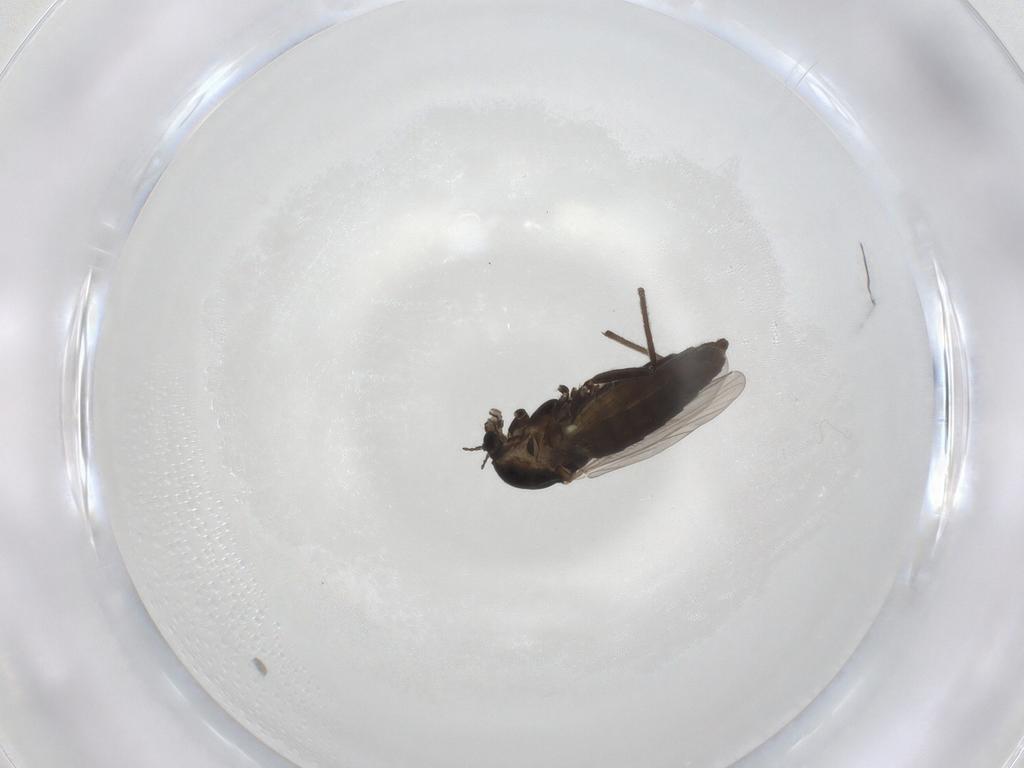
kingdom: Animalia
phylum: Arthropoda
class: Insecta
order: Diptera
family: Chironomidae
